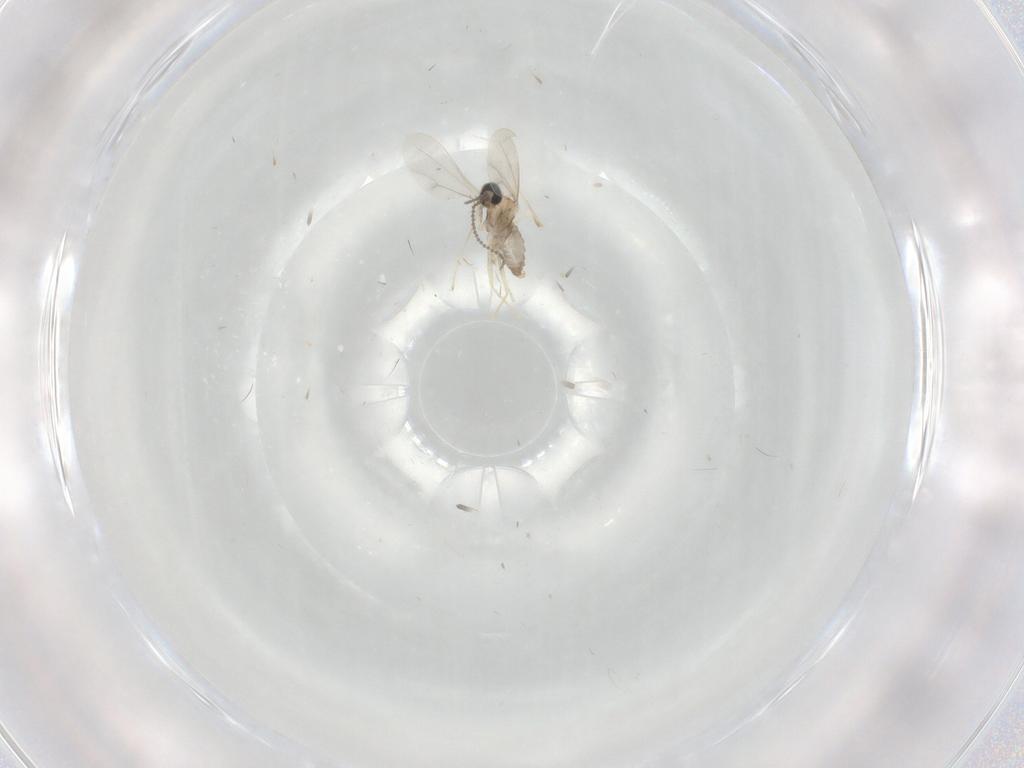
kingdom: Animalia
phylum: Arthropoda
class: Insecta
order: Diptera
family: Cecidomyiidae
